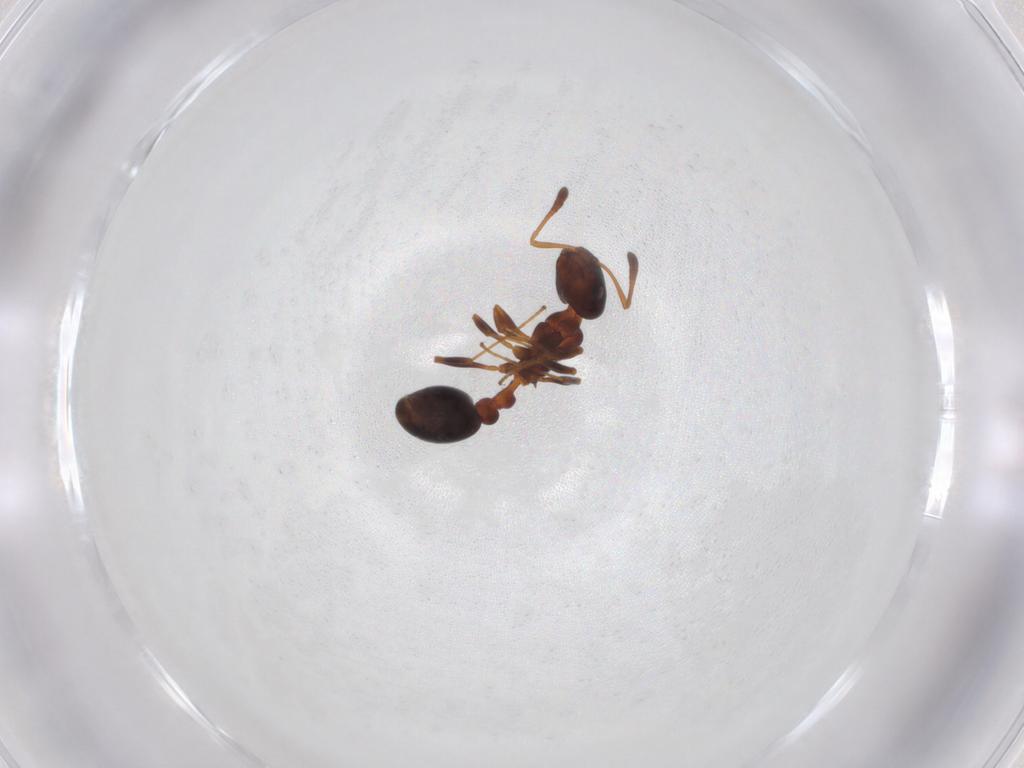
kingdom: Animalia
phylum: Arthropoda
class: Insecta
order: Hymenoptera
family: Formicidae
